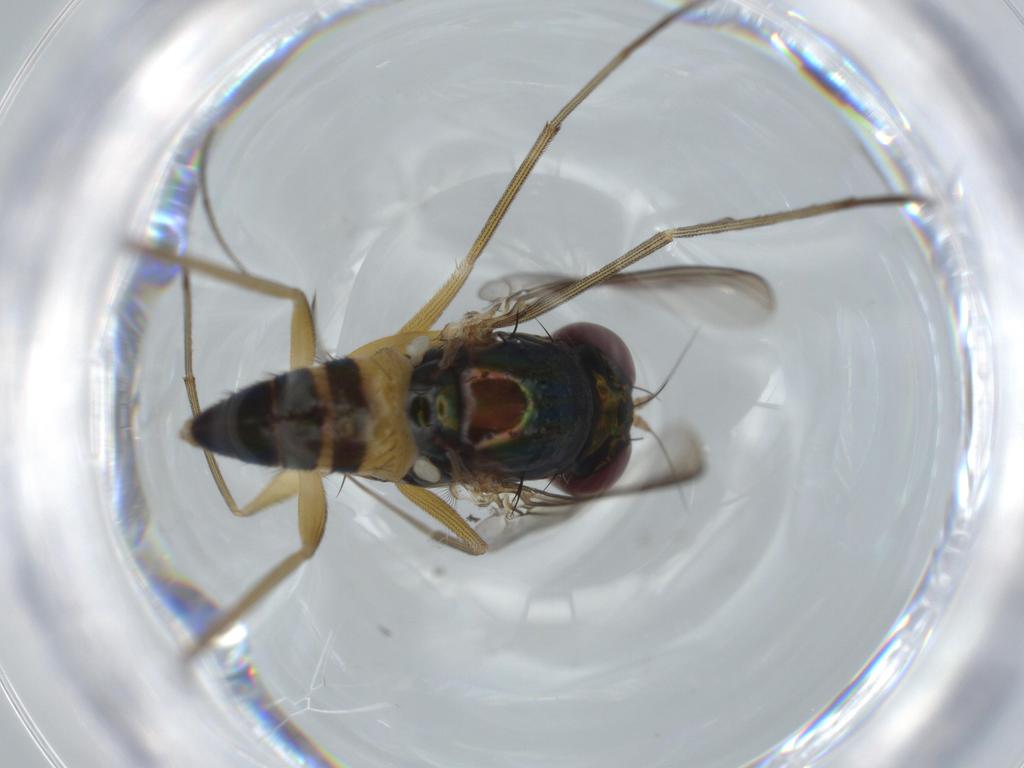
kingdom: Animalia
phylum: Arthropoda
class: Insecta
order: Diptera
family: Dolichopodidae
